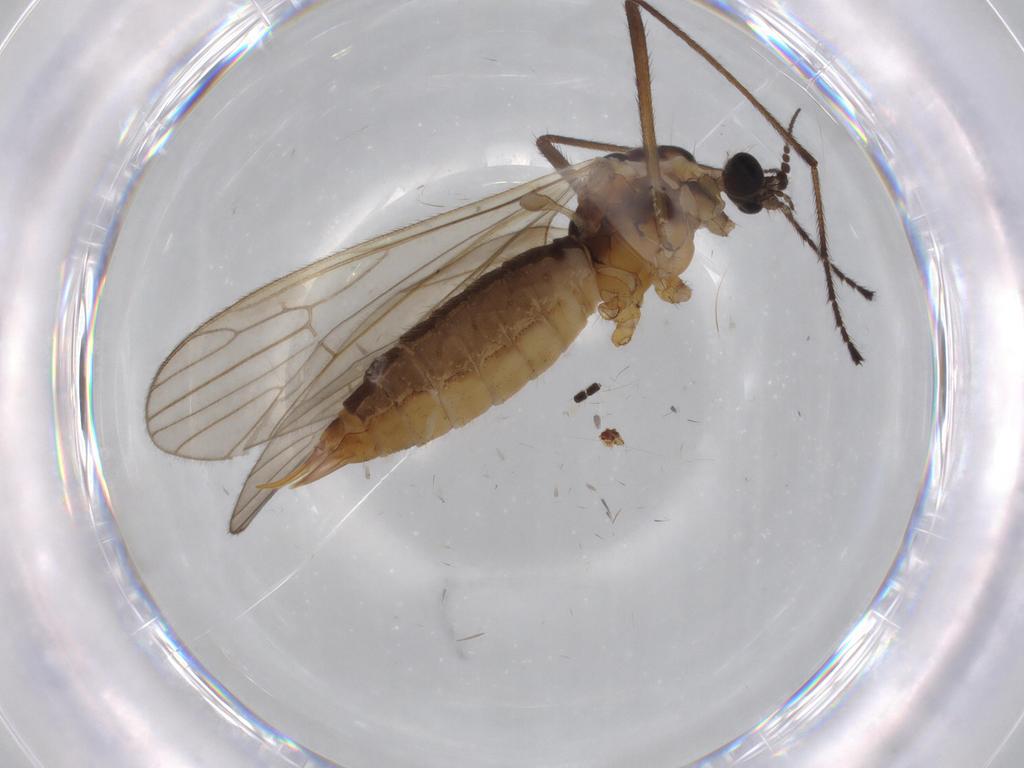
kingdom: Animalia
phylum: Arthropoda
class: Insecta
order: Diptera
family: Agromyzidae
